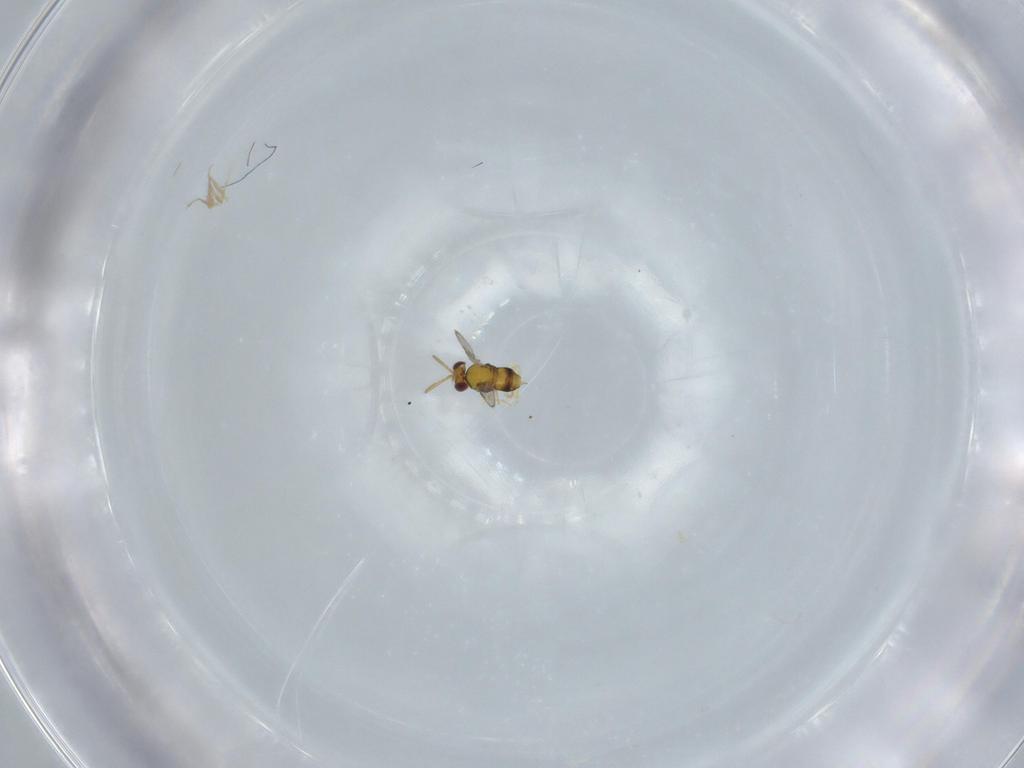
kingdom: Animalia
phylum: Arthropoda
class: Insecta
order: Hymenoptera
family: Aphelinidae
